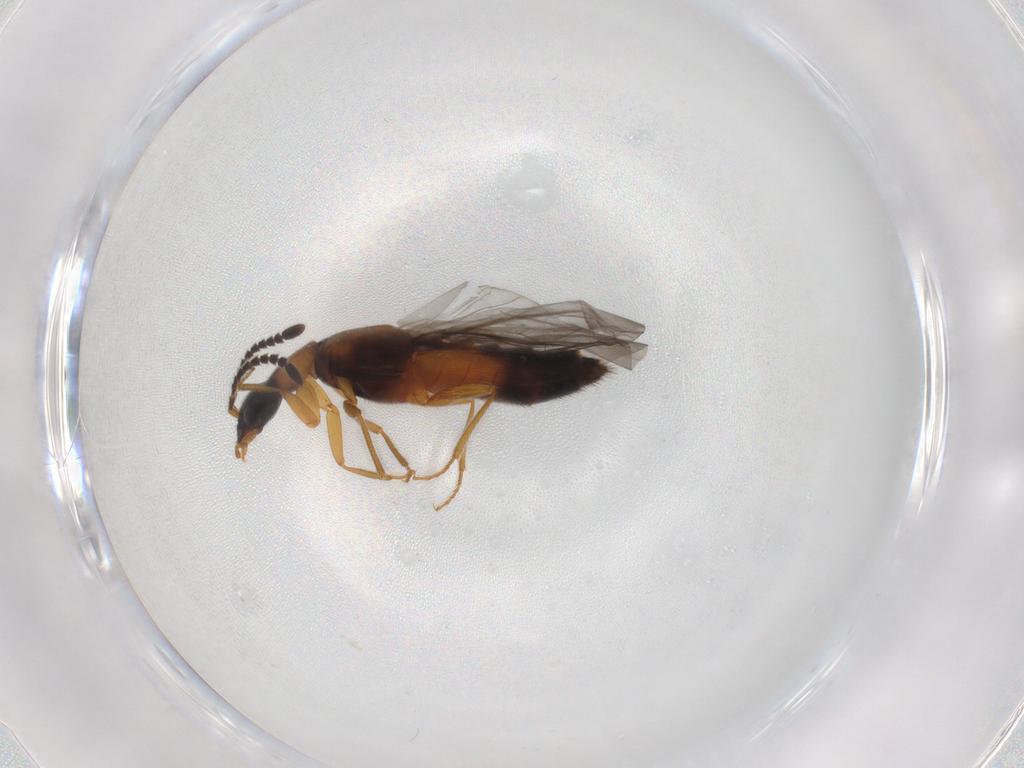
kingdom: Animalia
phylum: Arthropoda
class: Insecta
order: Coleoptera
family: Staphylinidae
